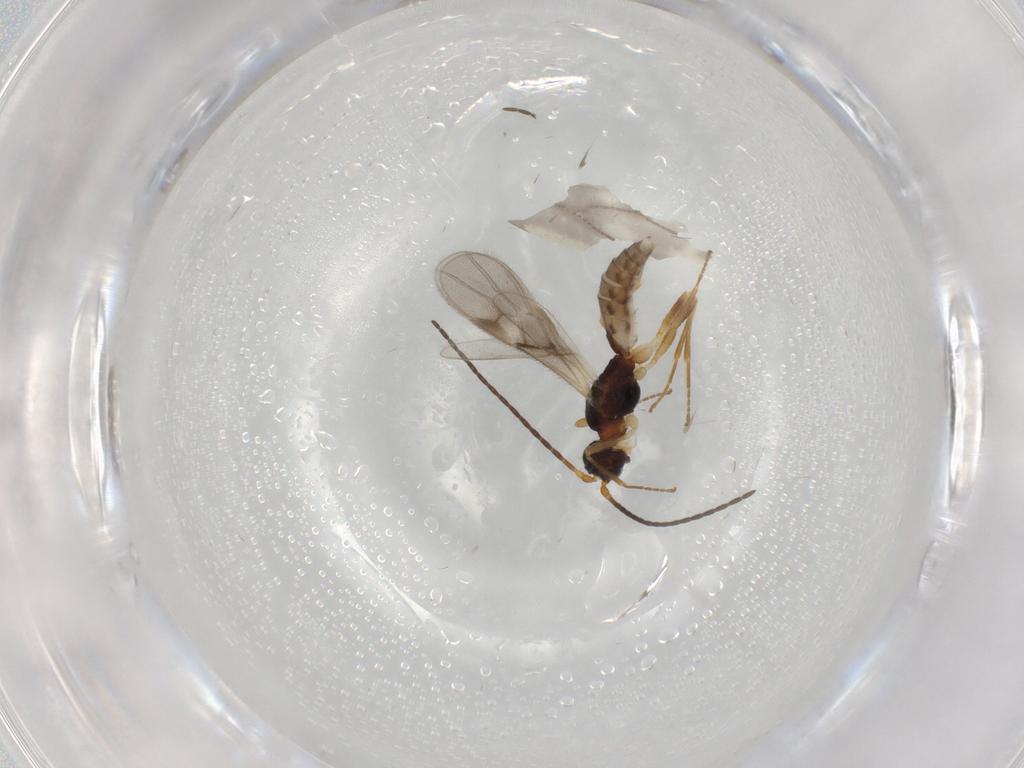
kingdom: Animalia
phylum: Arthropoda
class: Insecta
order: Hymenoptera
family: Braconidae
